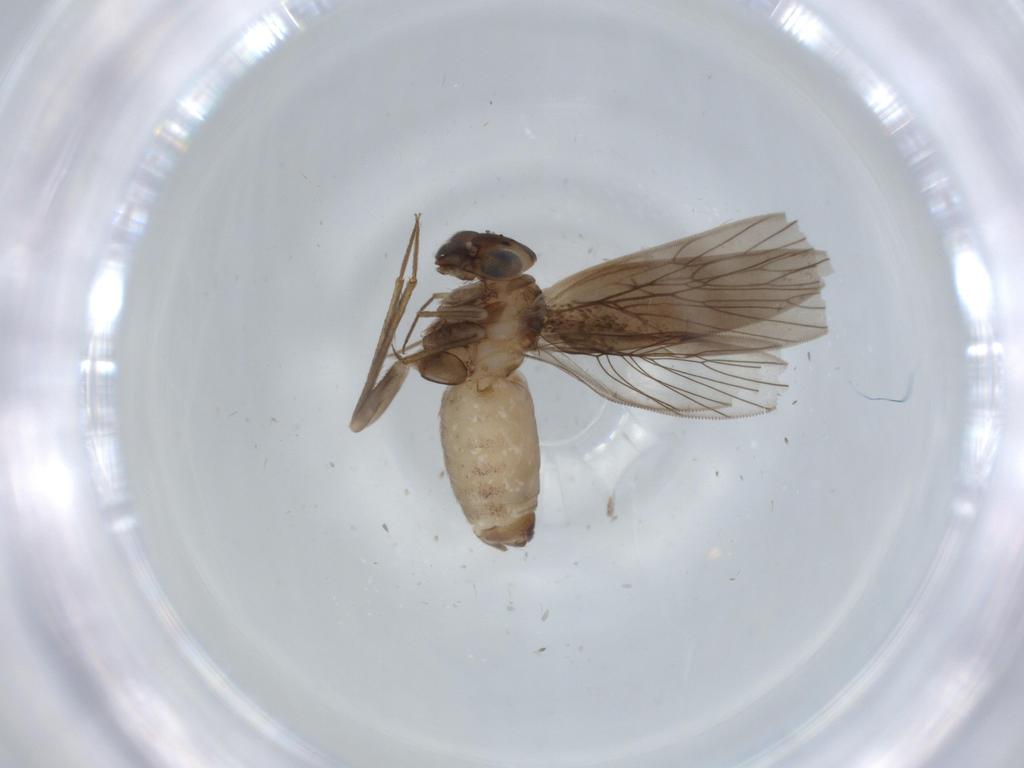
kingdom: Animalia
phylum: Arthropoda
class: Insecta
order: Psocodea
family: Lepidopsocidae
